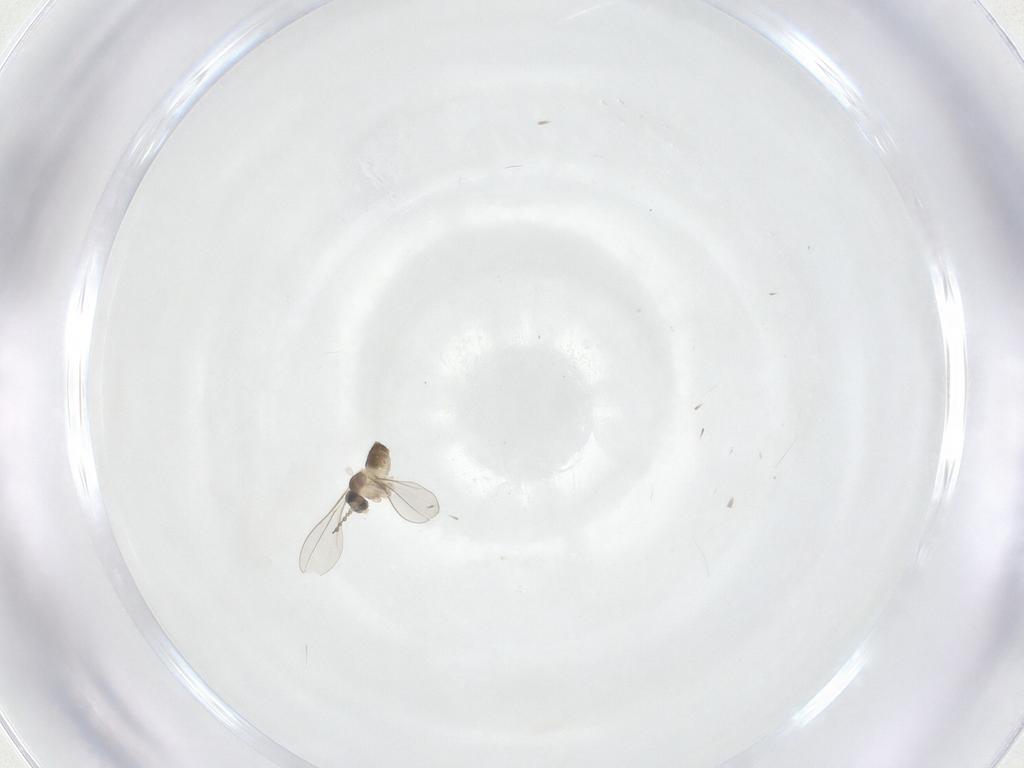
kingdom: Animalia
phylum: Arthropoda
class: Insecta
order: Diptera
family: Cecidomyiidae
